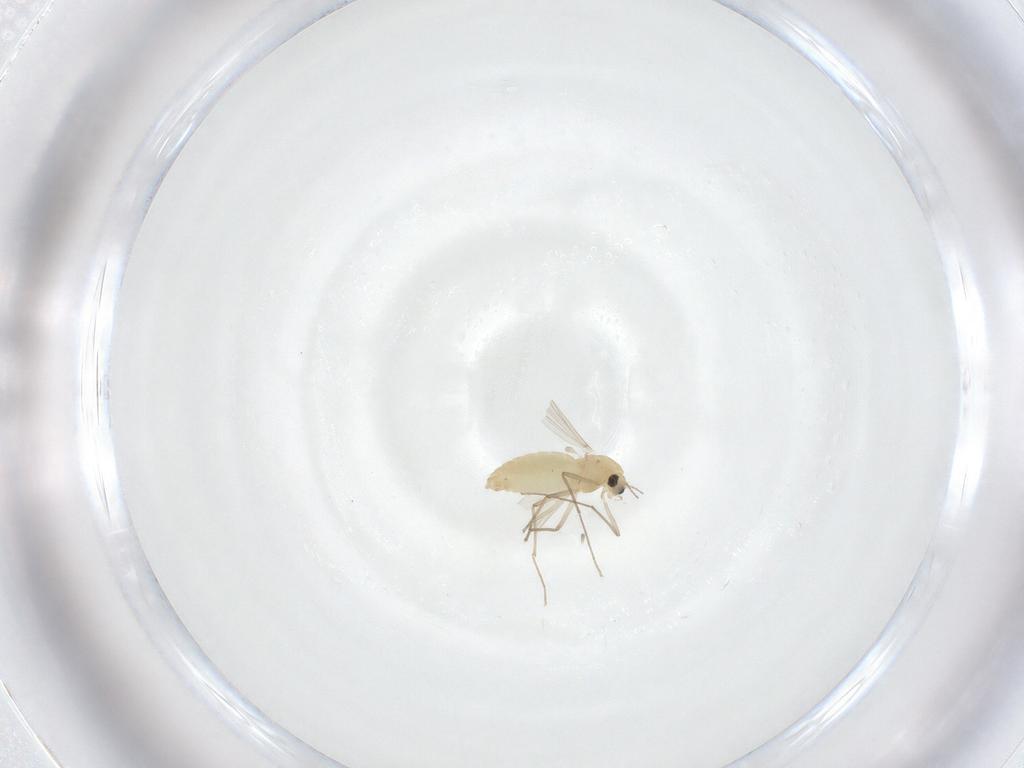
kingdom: Animalia
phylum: Arthropoda
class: Insecta
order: Diptera
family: Chironomidae
